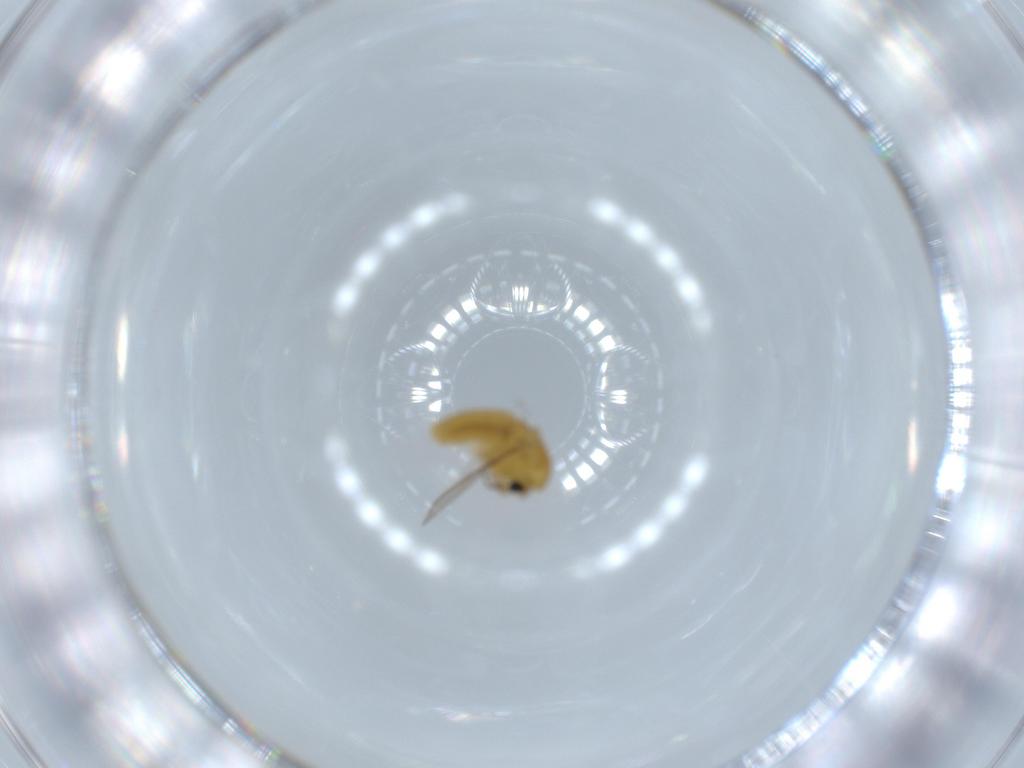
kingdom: Animalia
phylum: Arthropoda
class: Insecta
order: Diptera
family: Chironomidae
